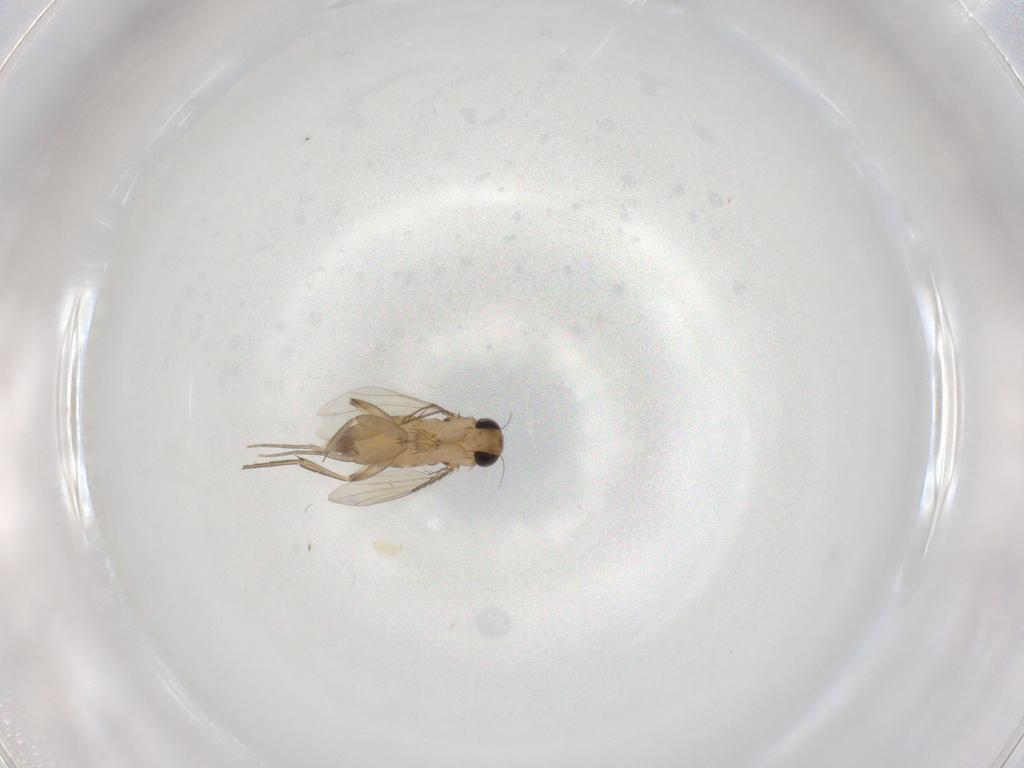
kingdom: Animalia
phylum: Arthropoda
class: Insecta
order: Diptera
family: Phoridae
